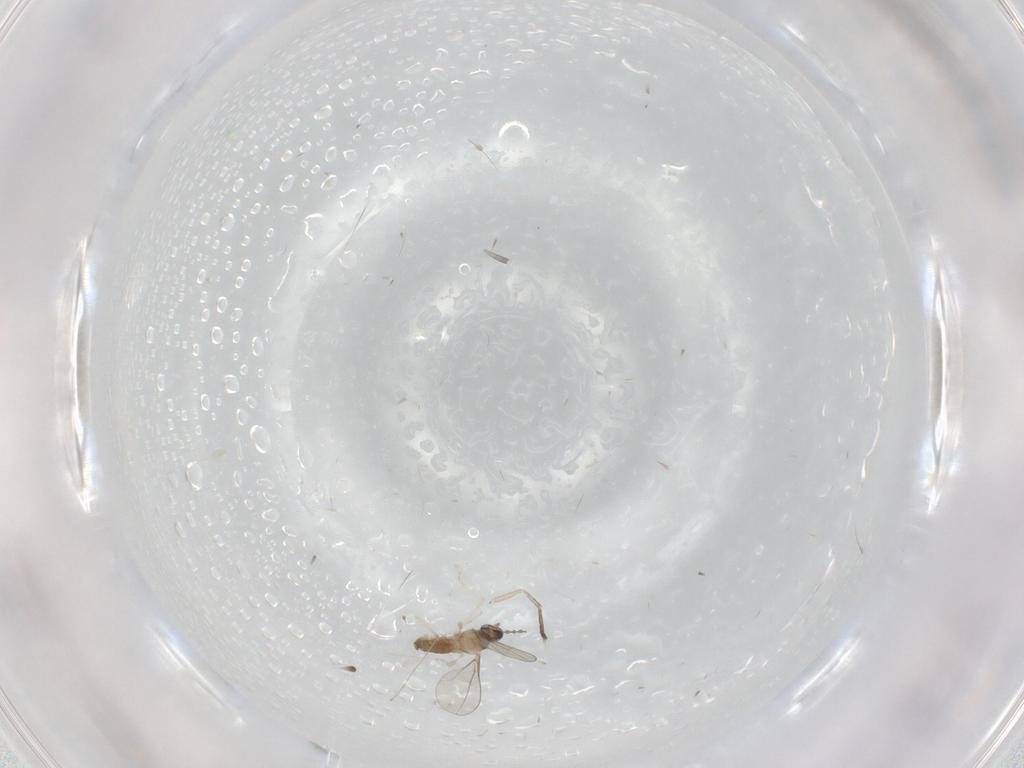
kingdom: Animalia
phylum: Arthropoda
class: Insecta
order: Diptera
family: Cecidomyiidae
